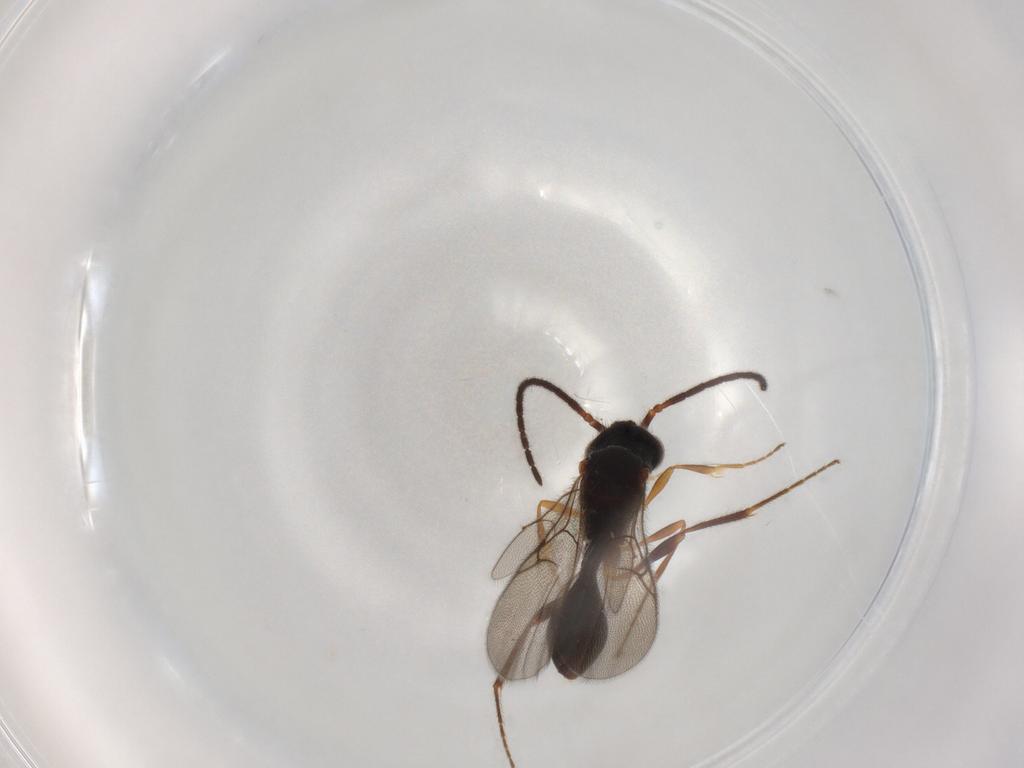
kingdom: Animalia
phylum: Arthropoda
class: Insecta
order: Hymenoptera
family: Diapriidae
